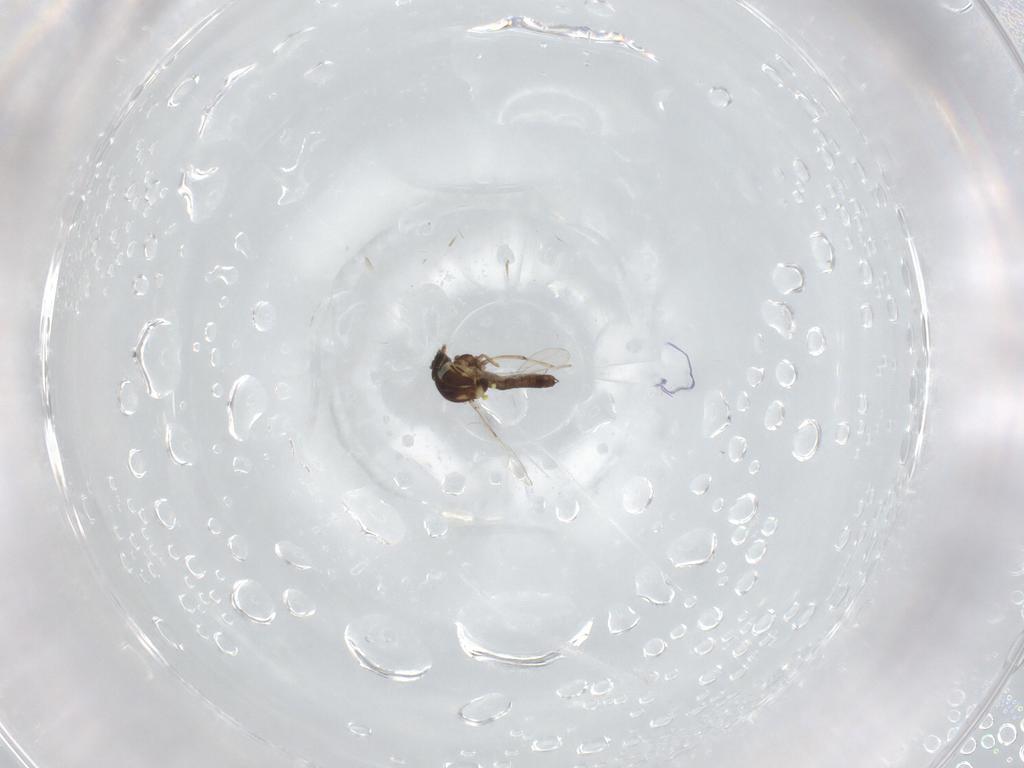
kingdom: Animalia
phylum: Arthropoda
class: Insecta
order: Diptera
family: Ceratopogonidae
